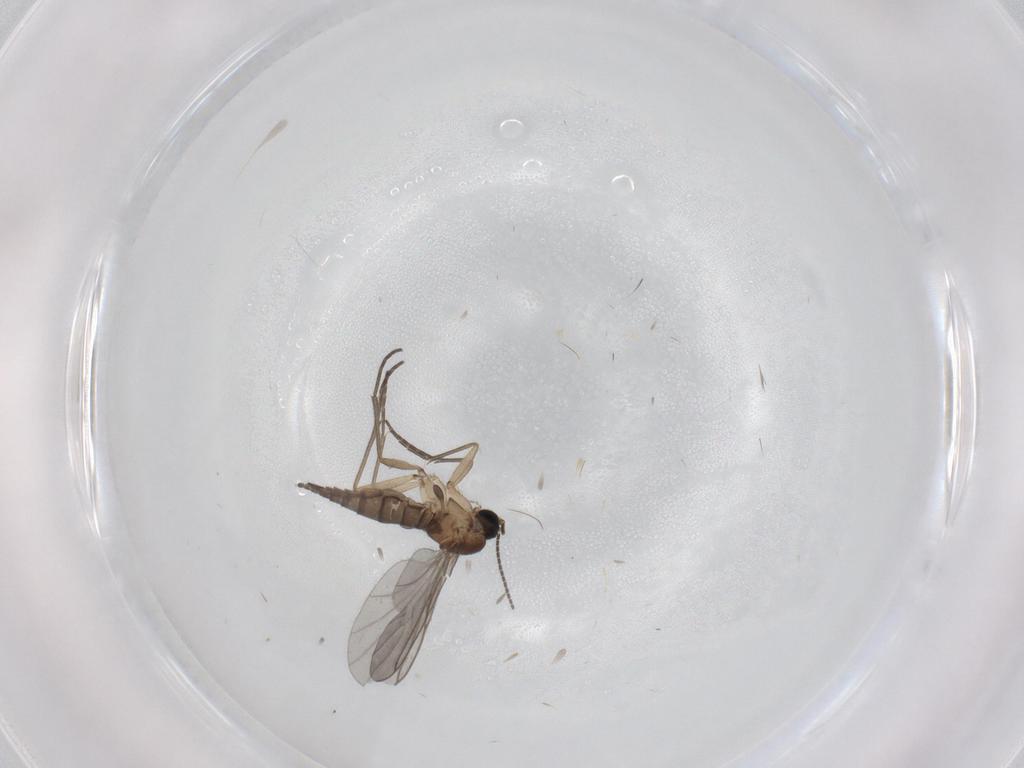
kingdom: Animalia
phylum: Arthropoda
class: Insecta
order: Diptera
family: Sciaridae
